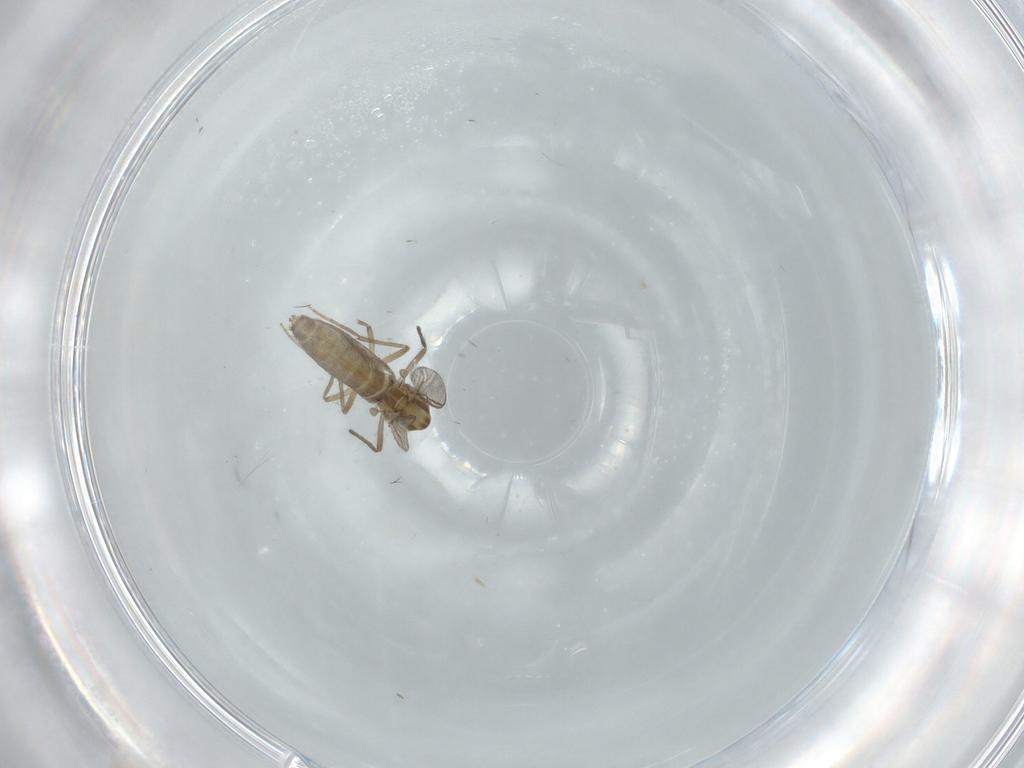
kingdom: Animalia
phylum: Arthropoda
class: Insecta
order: Diptera
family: Chironomidae
